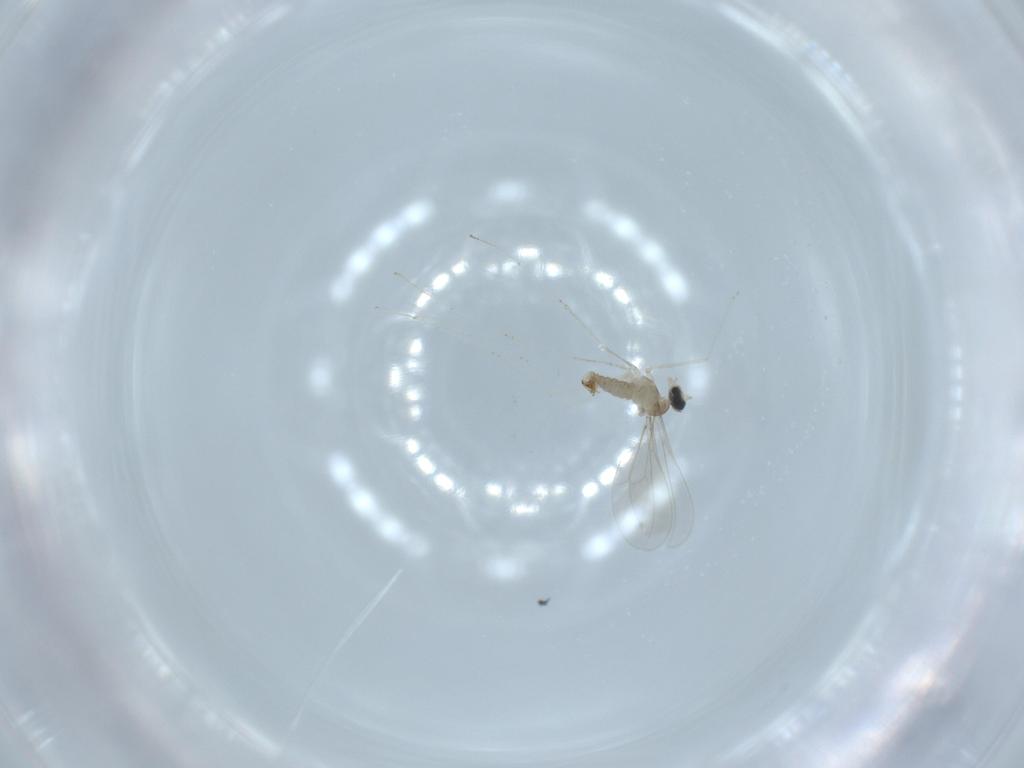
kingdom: Animalia
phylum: Arthropoda
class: Insecta
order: Diptera
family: Cecidomyiidae
